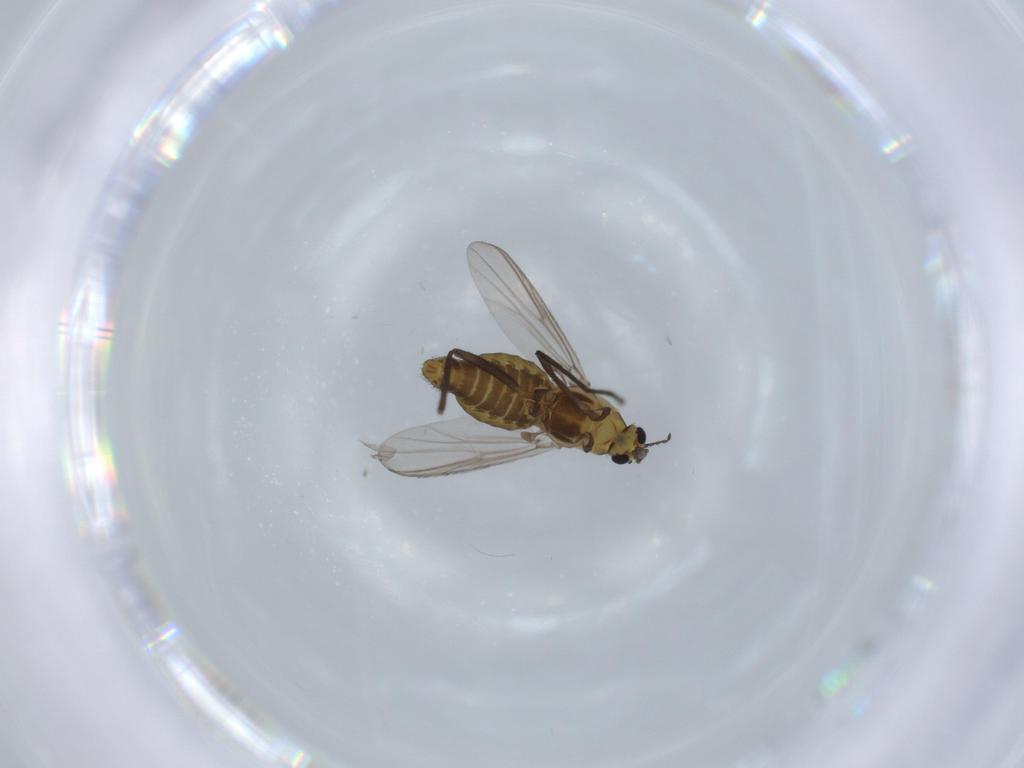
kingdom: Animalia
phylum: Arthropoda
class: Insecta
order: Diptera
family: Chironomidae
